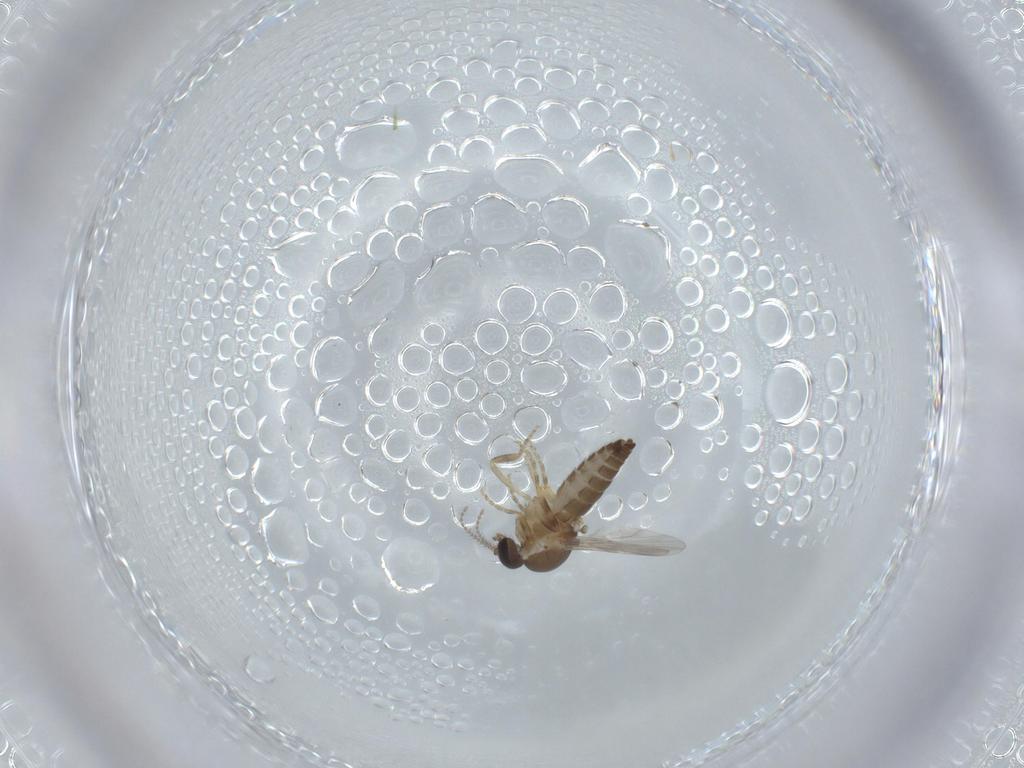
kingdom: Animalia
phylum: Arthropoda
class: Insecta
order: Diptera
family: Ceratopogonidae
